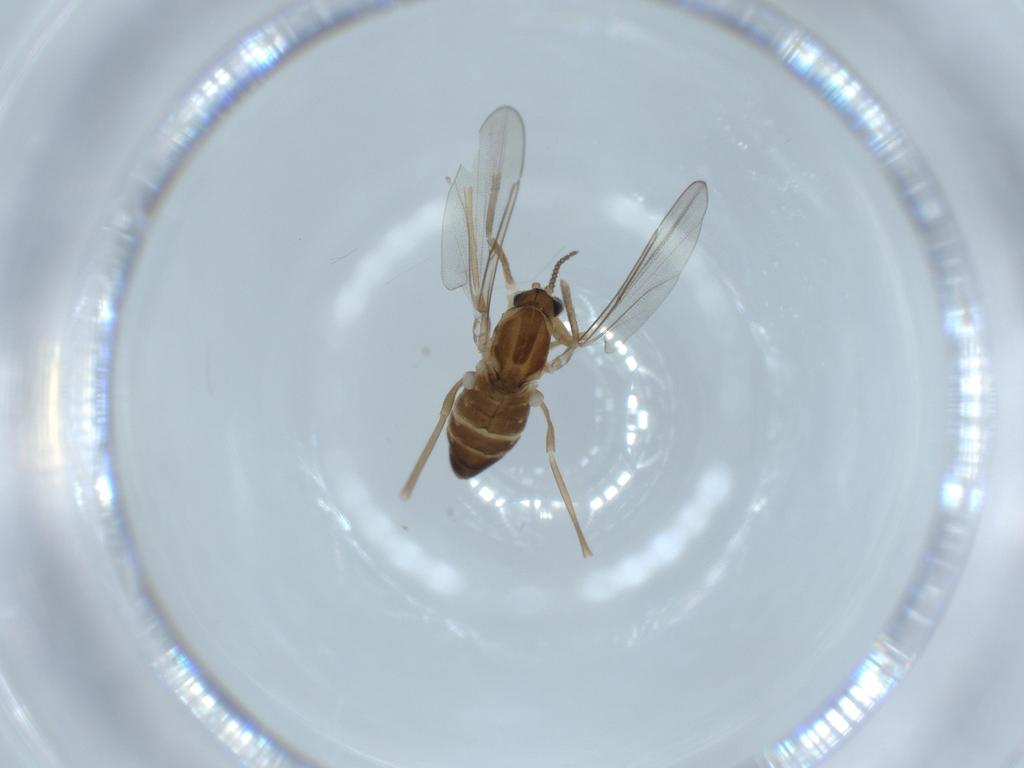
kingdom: Animalia
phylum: Arthropoda
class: Insecta
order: Diptera
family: Cecidomyiidae
